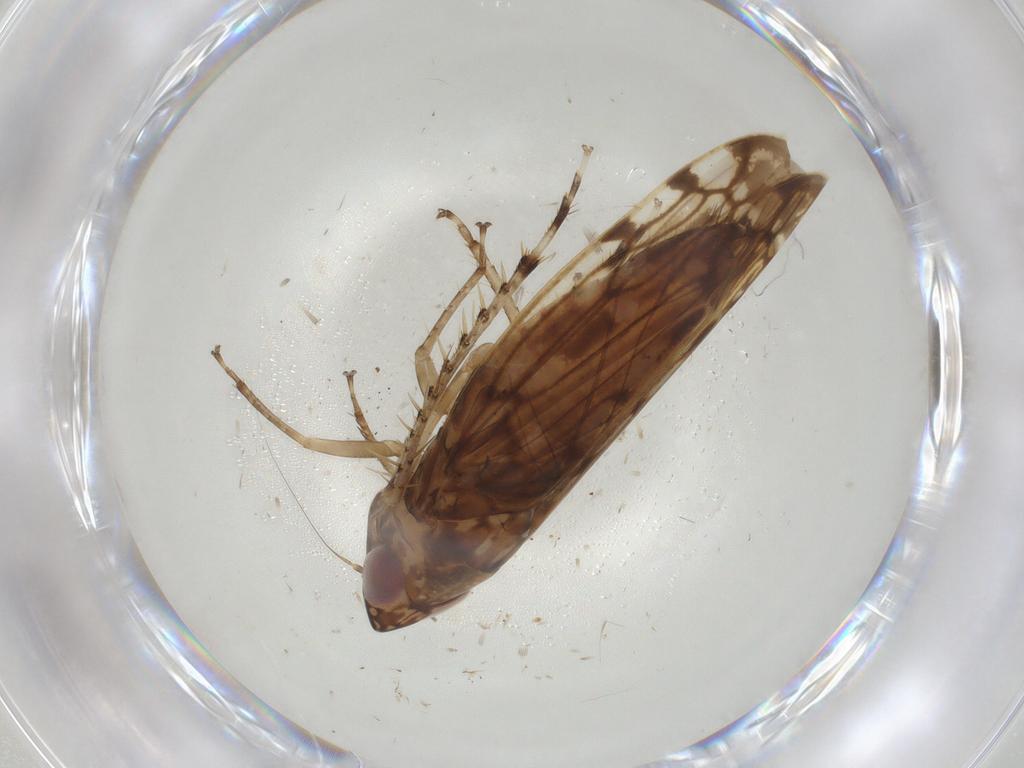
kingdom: Animalia
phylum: Arthropoda
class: Insecta
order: Hemiptera
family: Cicadellidae
